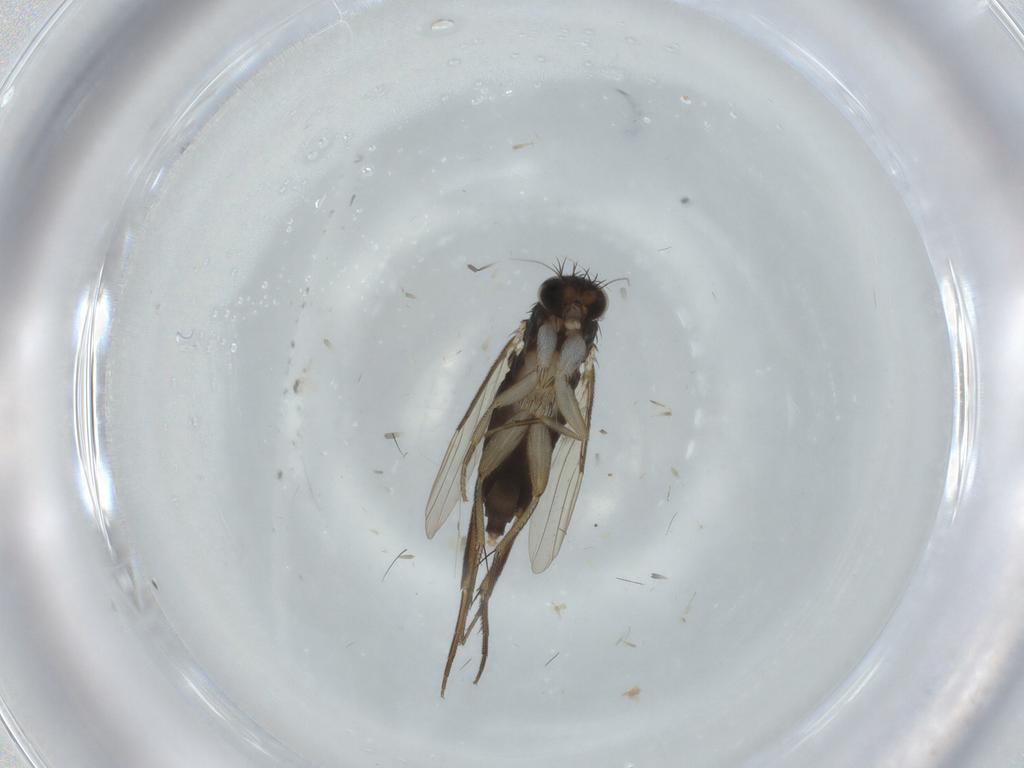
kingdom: Animalia
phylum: Arthropoda
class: Insecta
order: Diptera
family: Phoridae
